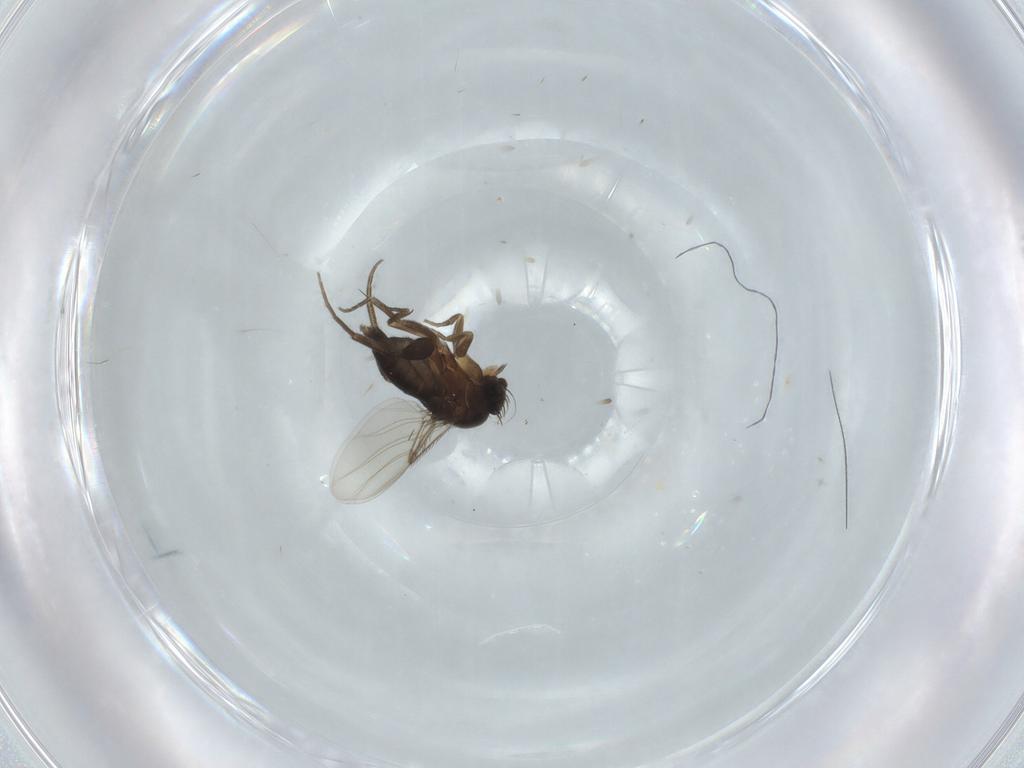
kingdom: Animalia
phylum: Arthropoda
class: Insecta
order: Diptera
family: Phoridae
